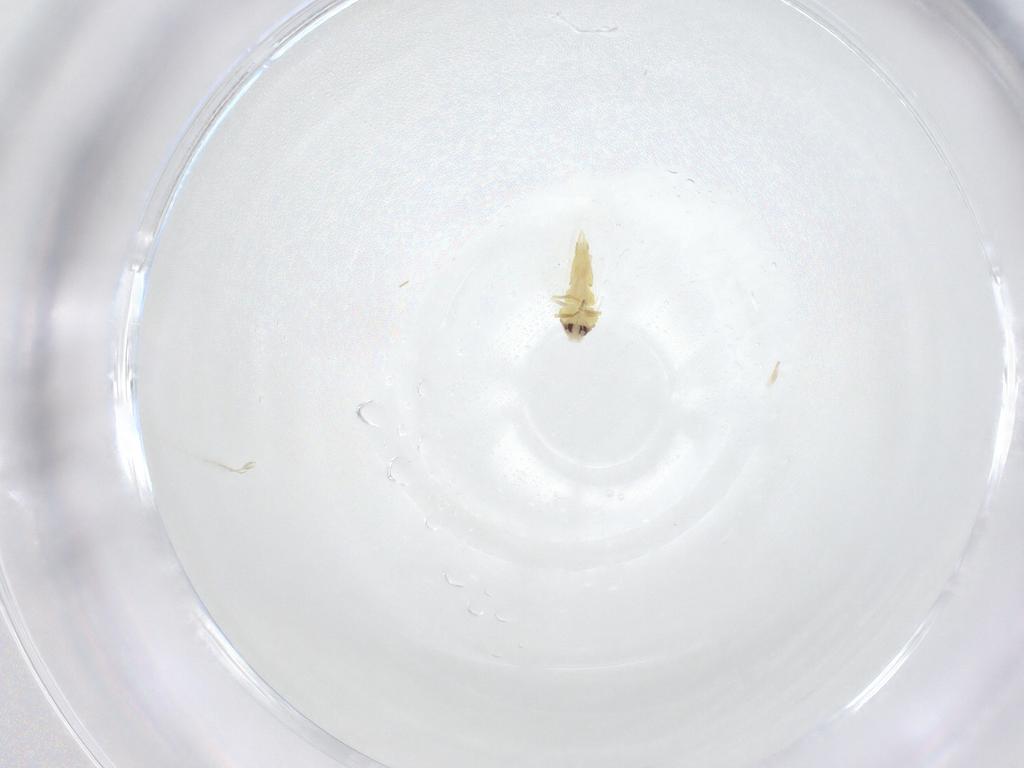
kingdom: Animalia
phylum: Arthropoda
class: Insecta
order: Hemiptera
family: Aleyrodidae
